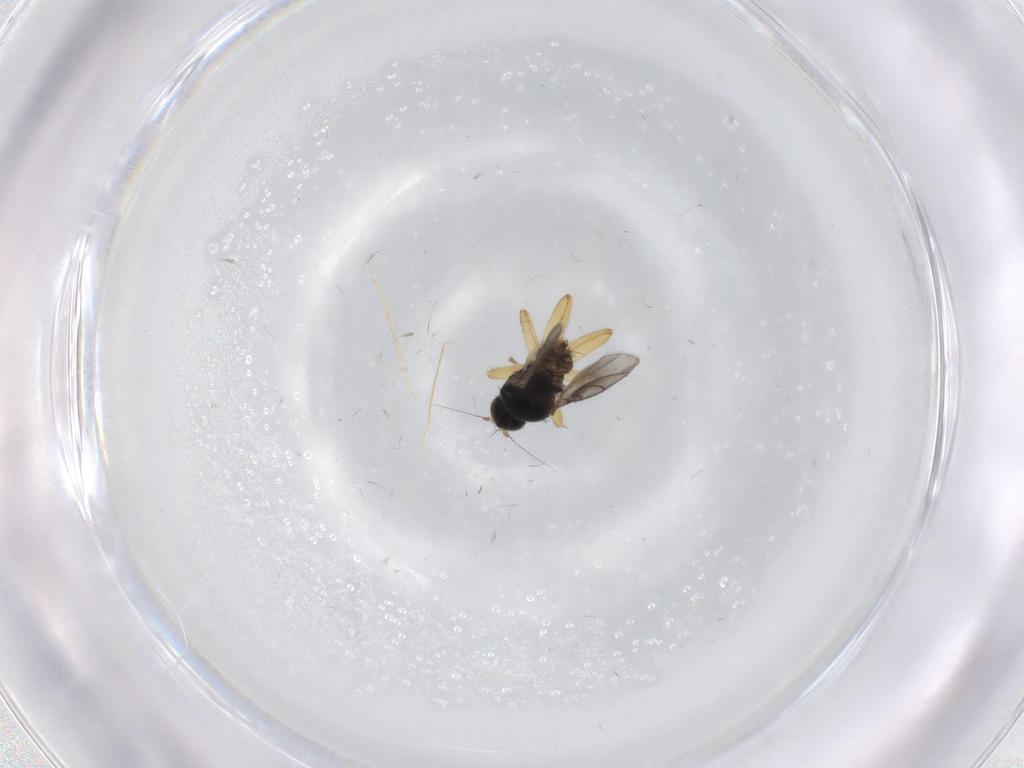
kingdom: Animalia
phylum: Arthropoda
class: Insecta
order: Diptera
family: Hybotidae
